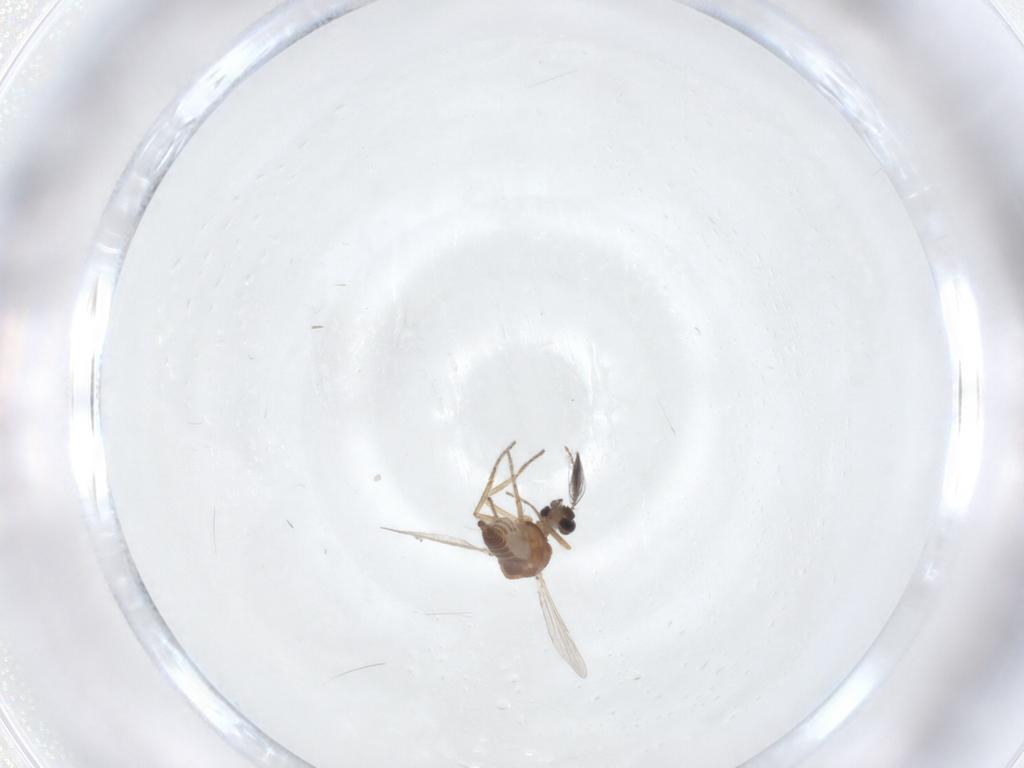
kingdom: Animalia
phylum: Arthropoda
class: Insecta
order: Diptera
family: Ceratopogonidae
